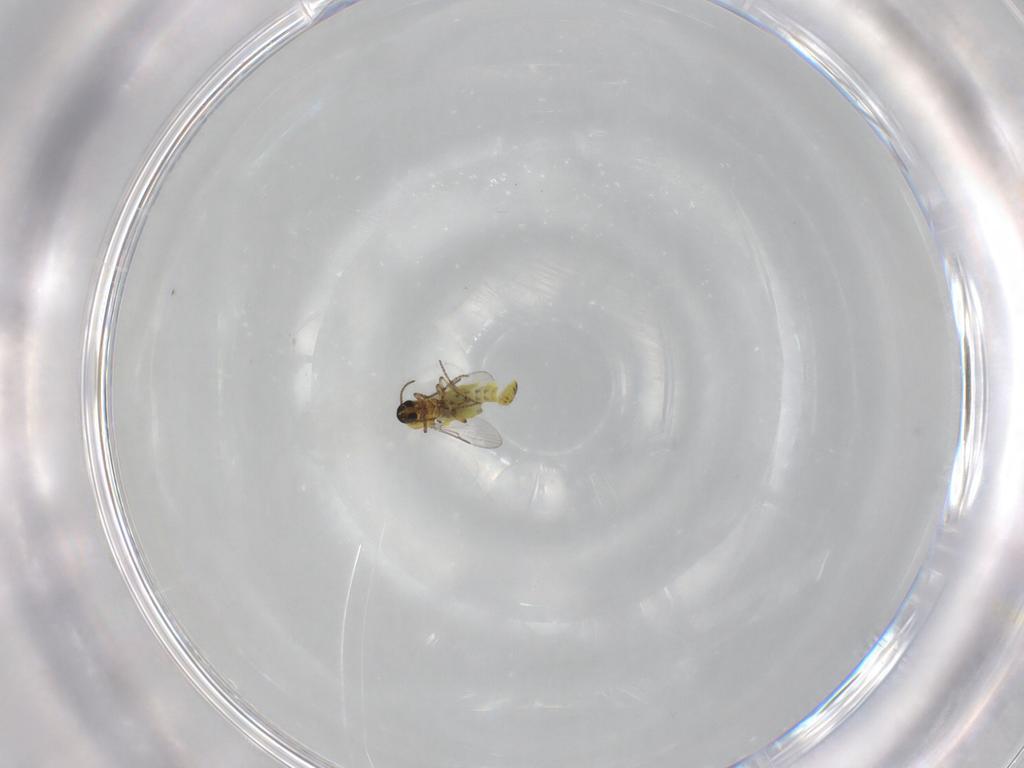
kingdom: Animalia
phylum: Arthropoda
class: Insecta
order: Diptera
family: Ceratopogonidae
